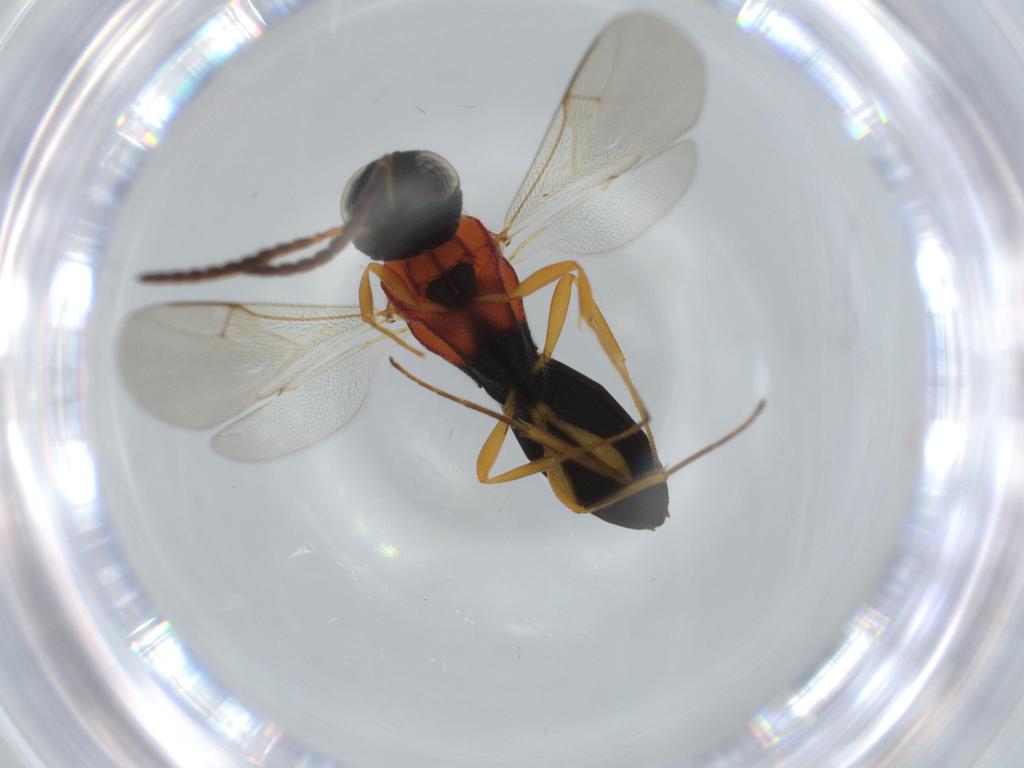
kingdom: Animalia
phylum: Arthropoda
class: Insecta
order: Hymenoptera
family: Scelionidae
